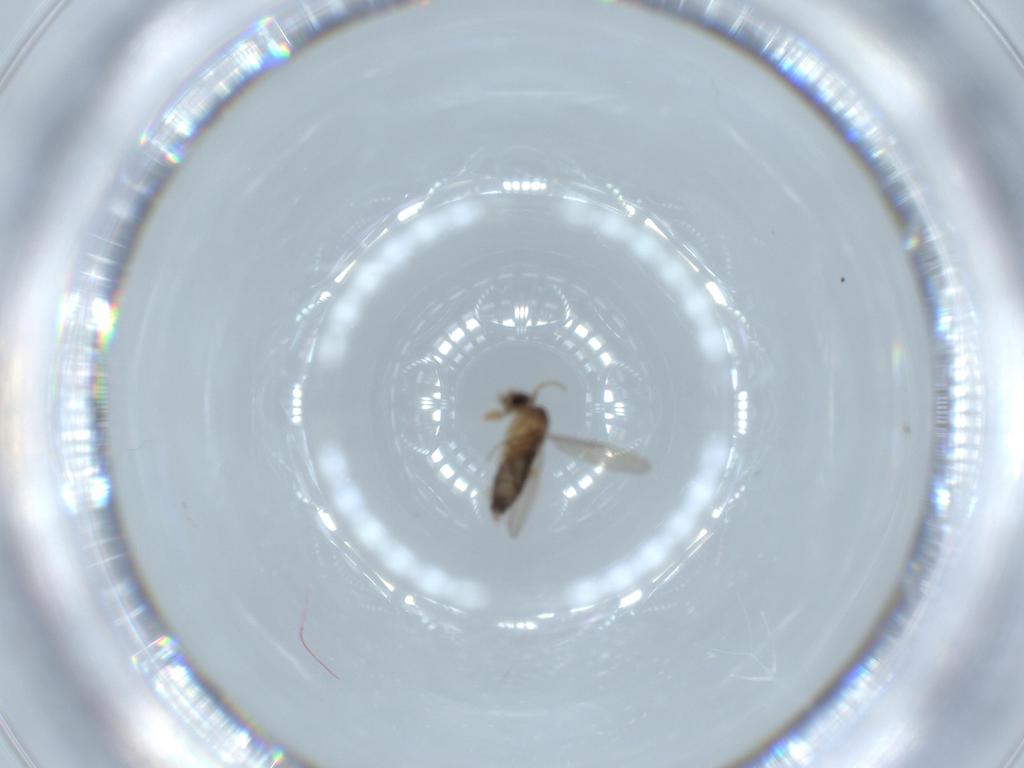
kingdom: Animalia
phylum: Arthropoda
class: Insecta
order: Diptera
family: Phoridae
